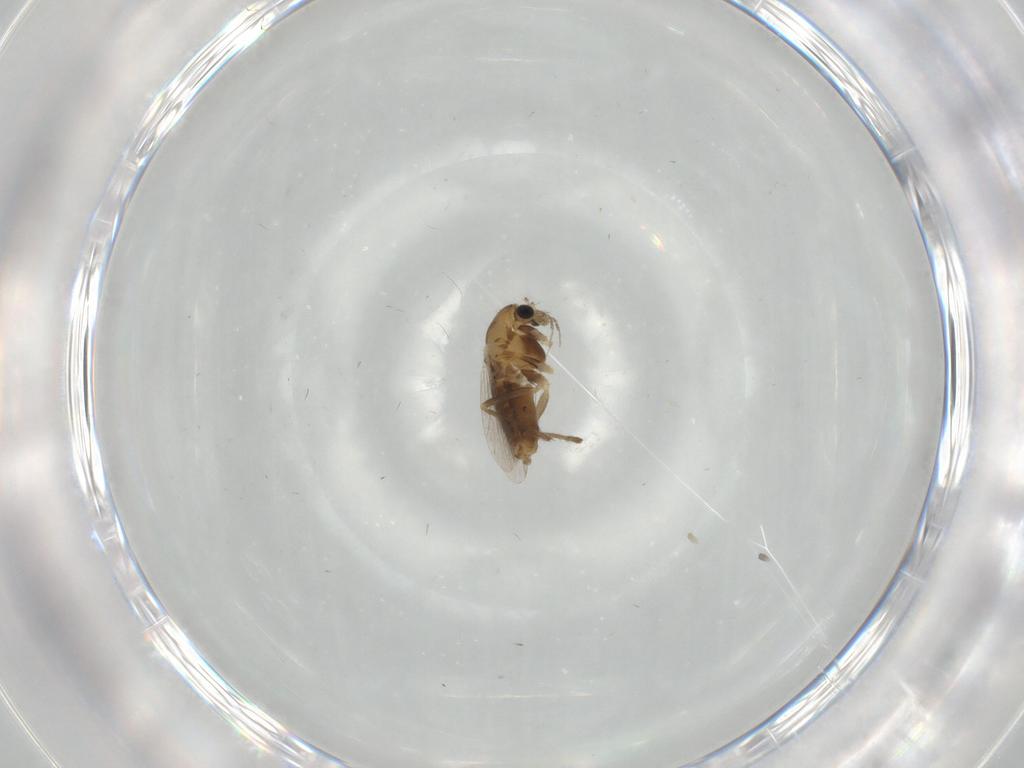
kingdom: Animalia
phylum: Arthropoda
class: Insecta
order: Diptera
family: Chironomidae
